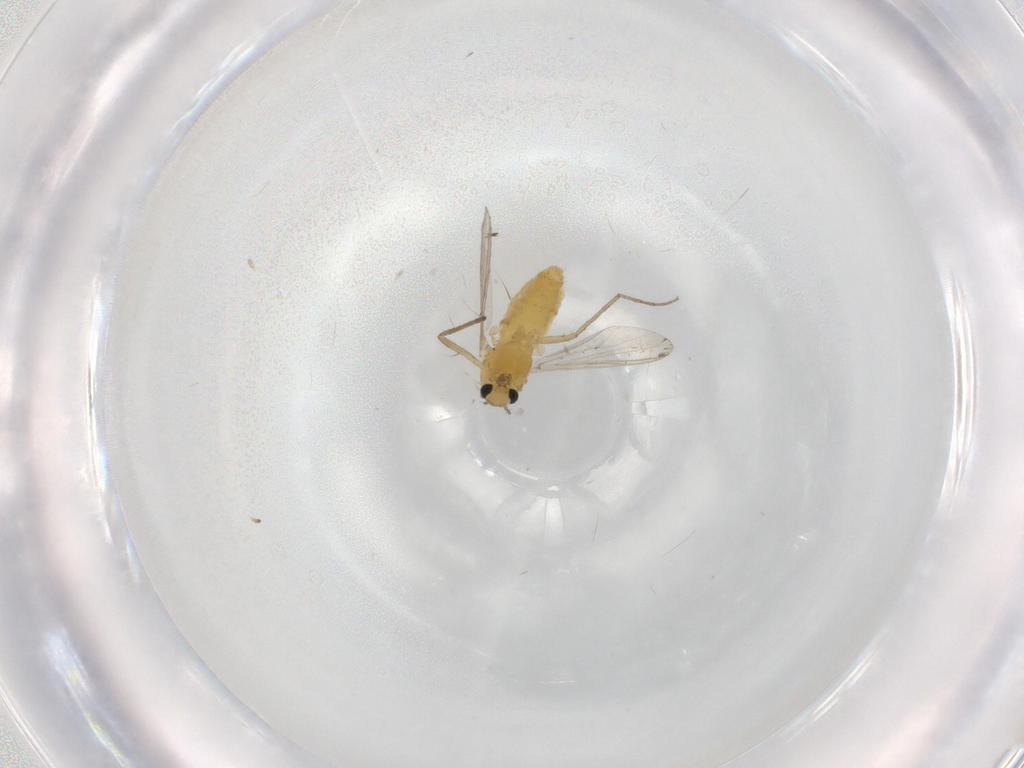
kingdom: Animalia
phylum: Arthropoda
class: Insecta
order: Diptera
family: Chironomidae
